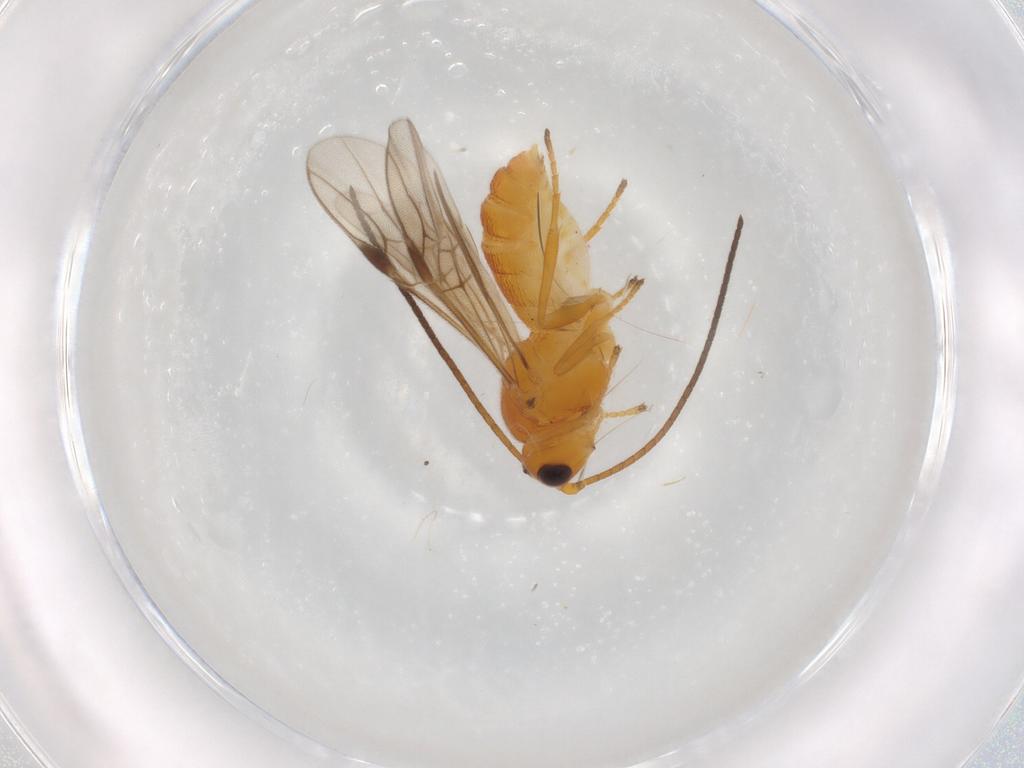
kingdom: Animalia
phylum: Arthropoda
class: Insecta
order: Hymenoptera
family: Braconidae
